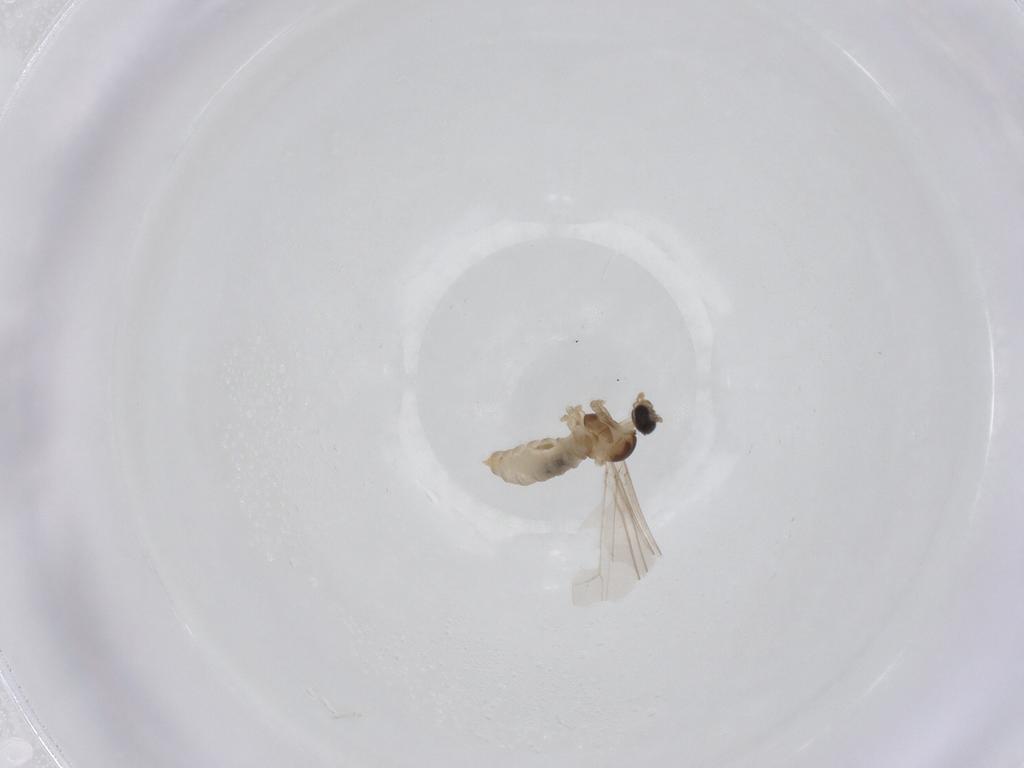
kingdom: Animalia
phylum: Arthropoda
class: Insecta
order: Diptera
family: Cecidomyiidae
